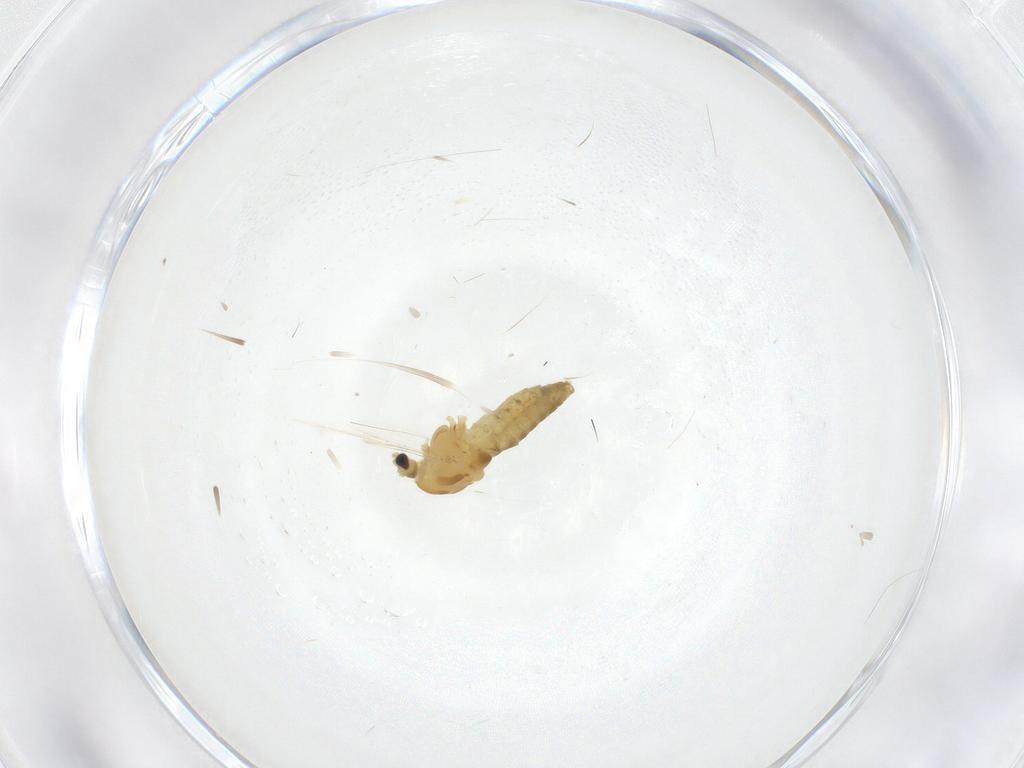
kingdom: Animalia
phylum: Arthropoda
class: Insecta
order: Diptera
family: Chironomidae
